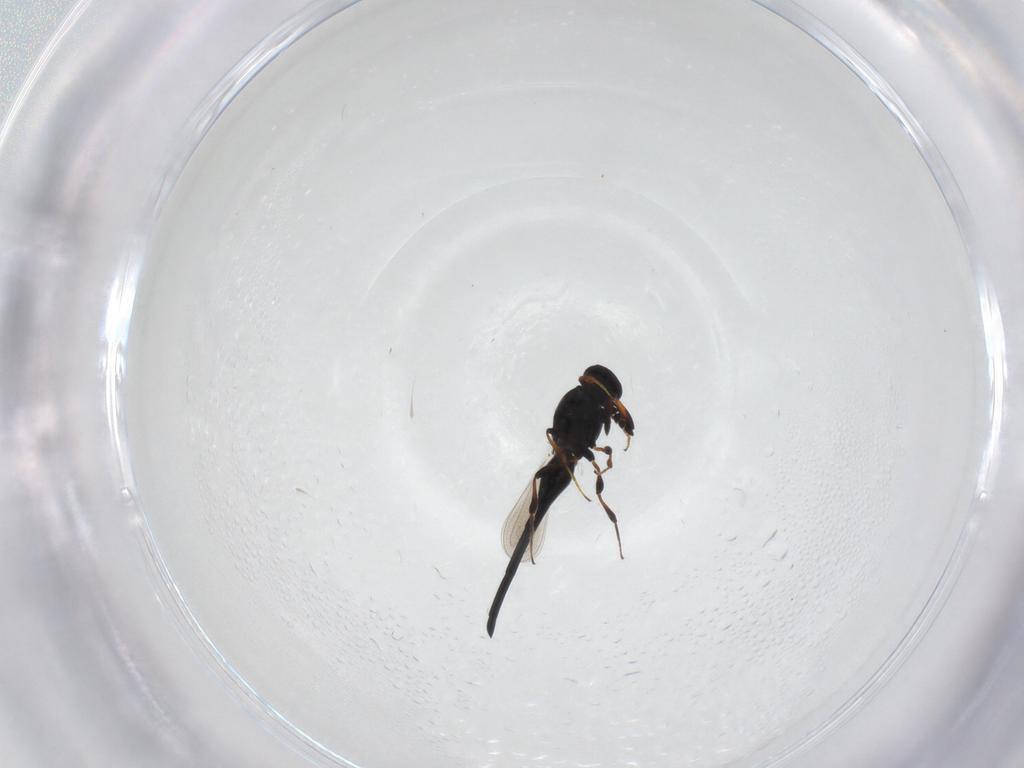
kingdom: Animalia
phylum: Arthropoda
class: Insecta
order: Hymenoptera
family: Platygastridae
